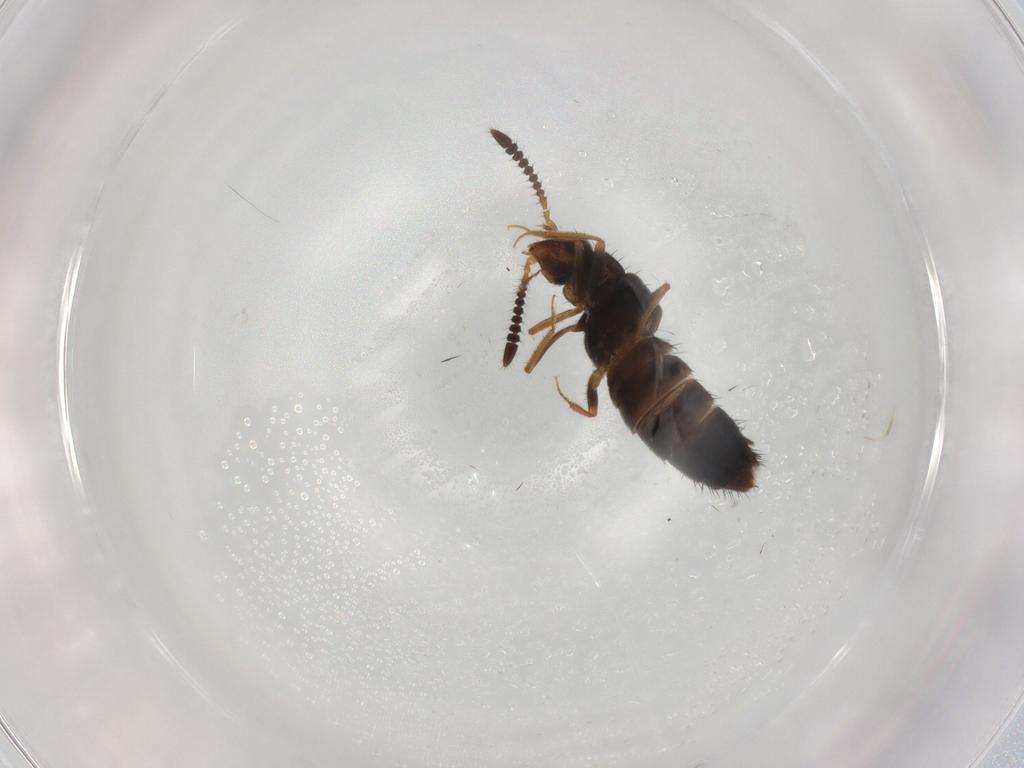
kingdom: Animalia
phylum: Arthropoda
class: Insecta
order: Coleoptera
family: Staphylinidae
